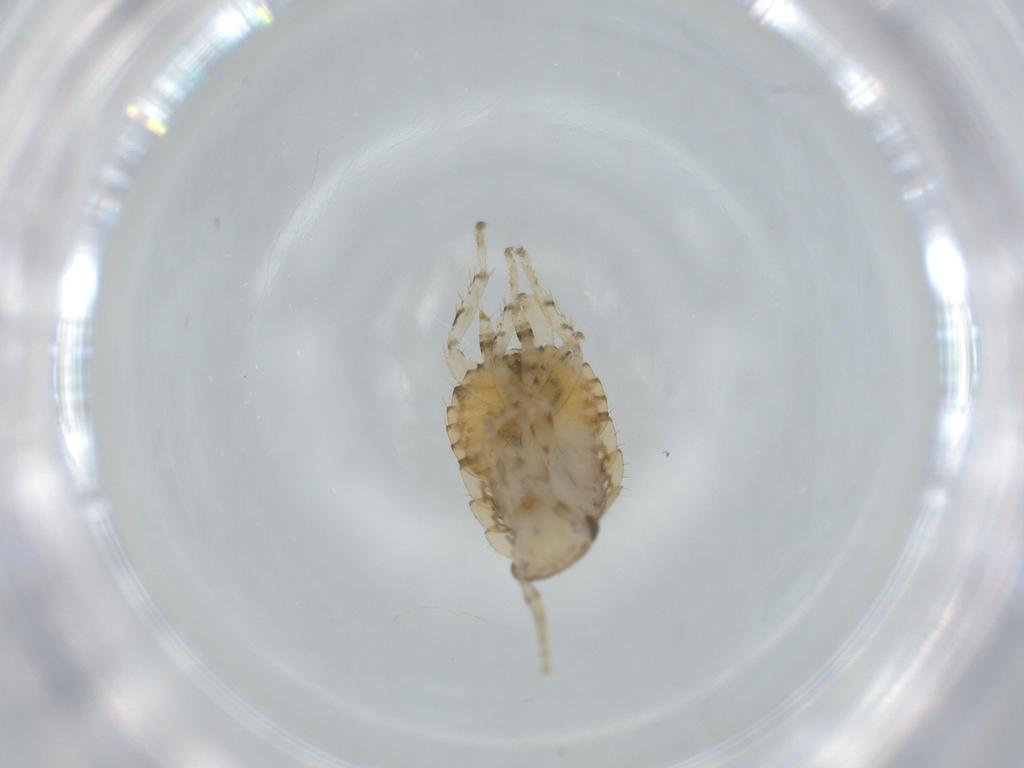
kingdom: Animalia
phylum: Arthropoda
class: Insecta
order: Blattodea
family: Ectobiidae
